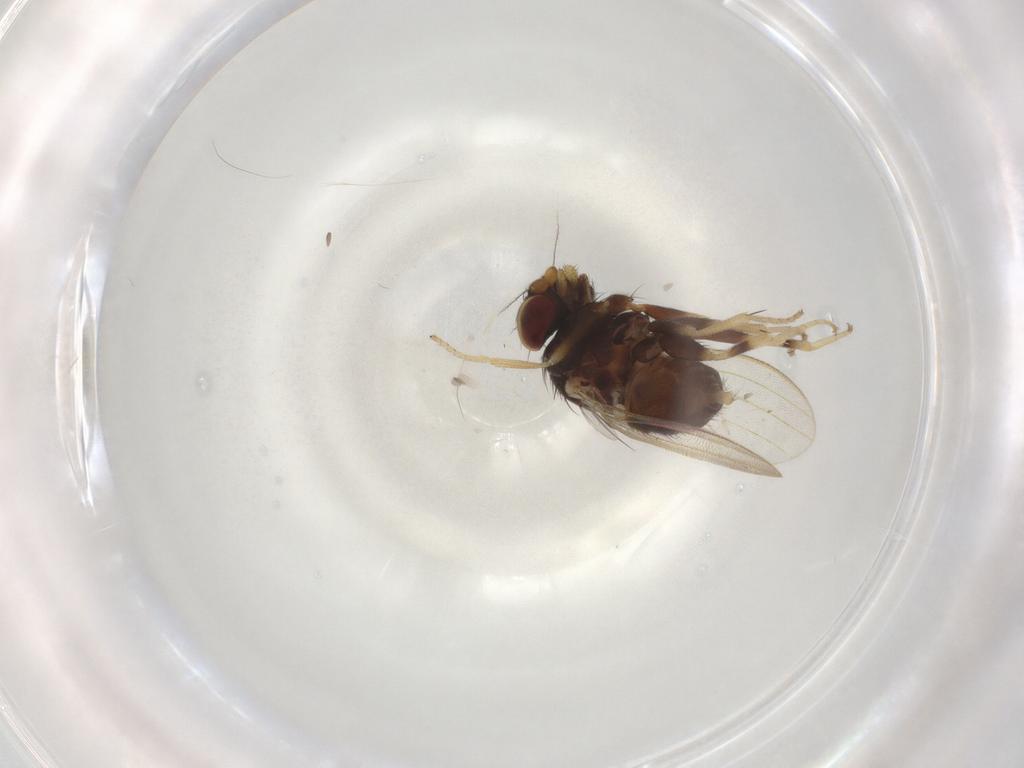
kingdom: Animalia
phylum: Arthropoda
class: Insecta
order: Diptera
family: Milichiidae
